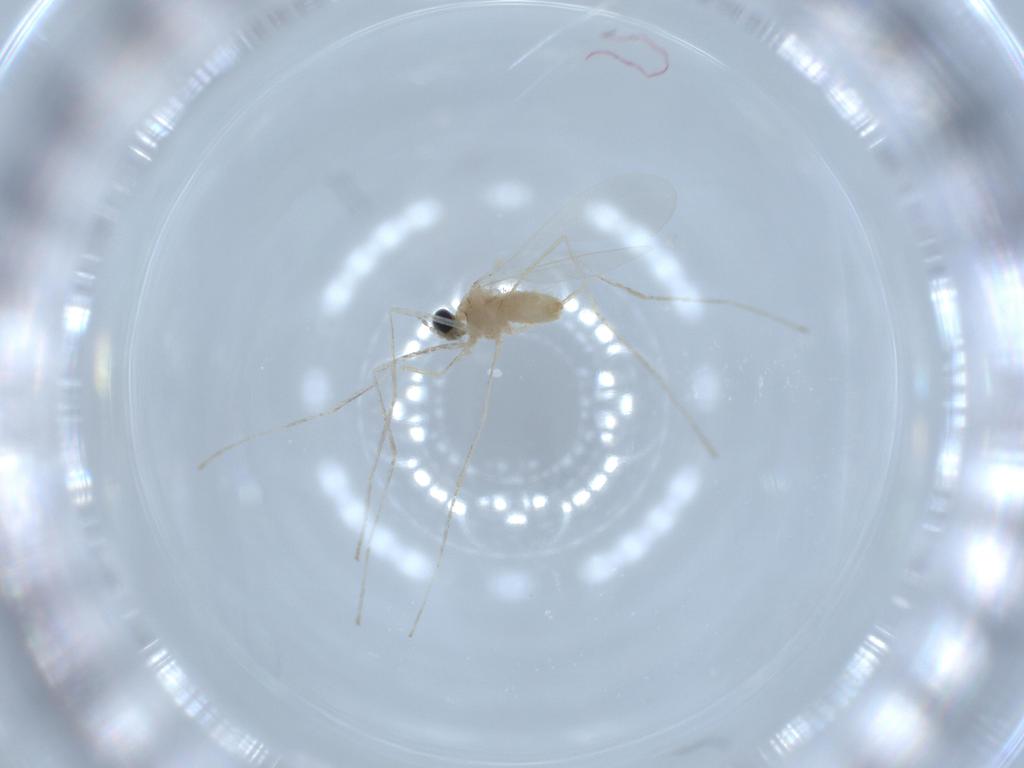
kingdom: Animalia
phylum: Arthropoda
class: Insecta
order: Diptera
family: Cecidomyiidae
